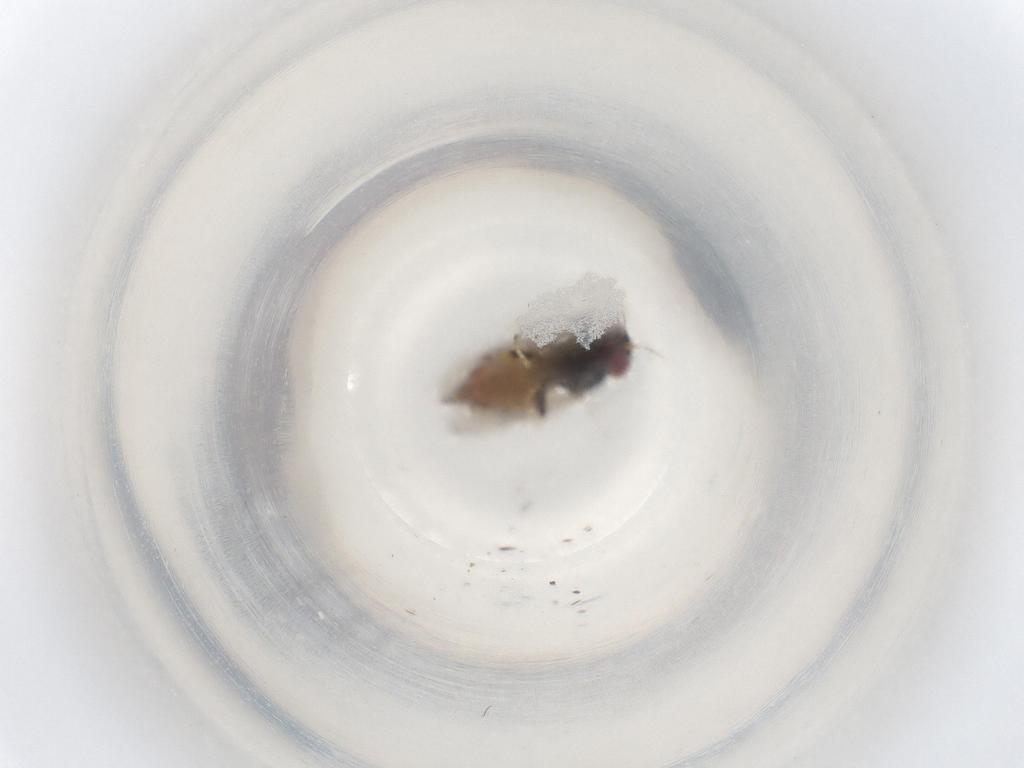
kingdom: Animalia
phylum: Arthropoda
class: Insecta
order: Diptera
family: Chloropidae
